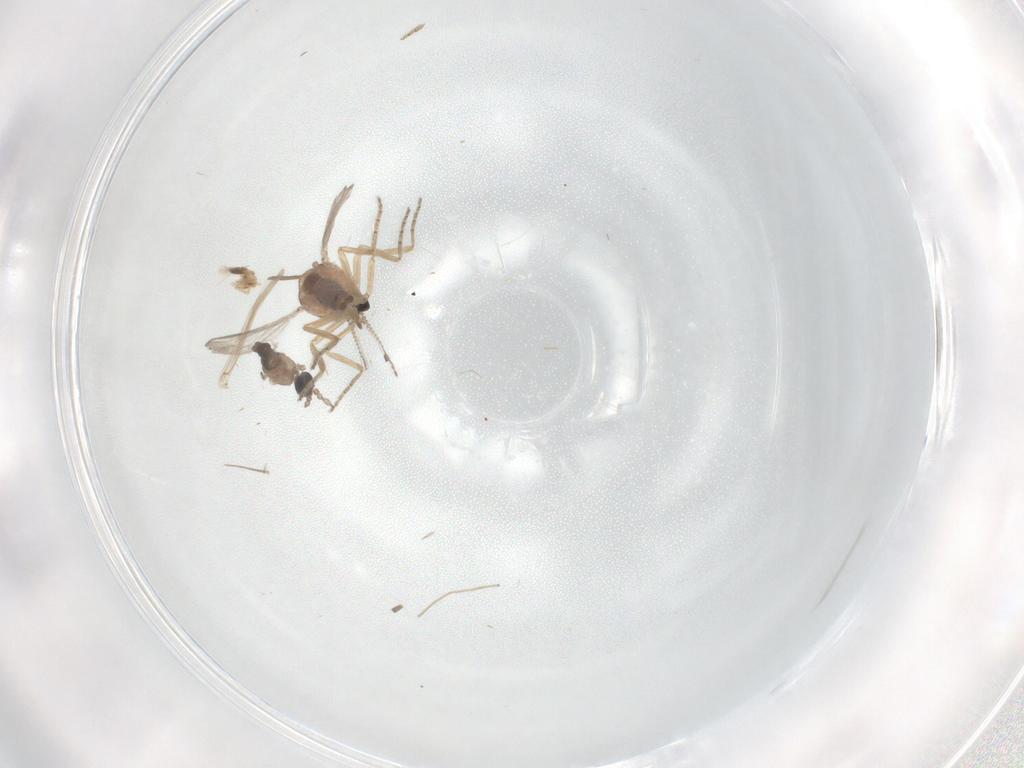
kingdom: Animalia
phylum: Arthropoda
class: Insecta
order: Diptera
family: Chironomidae
